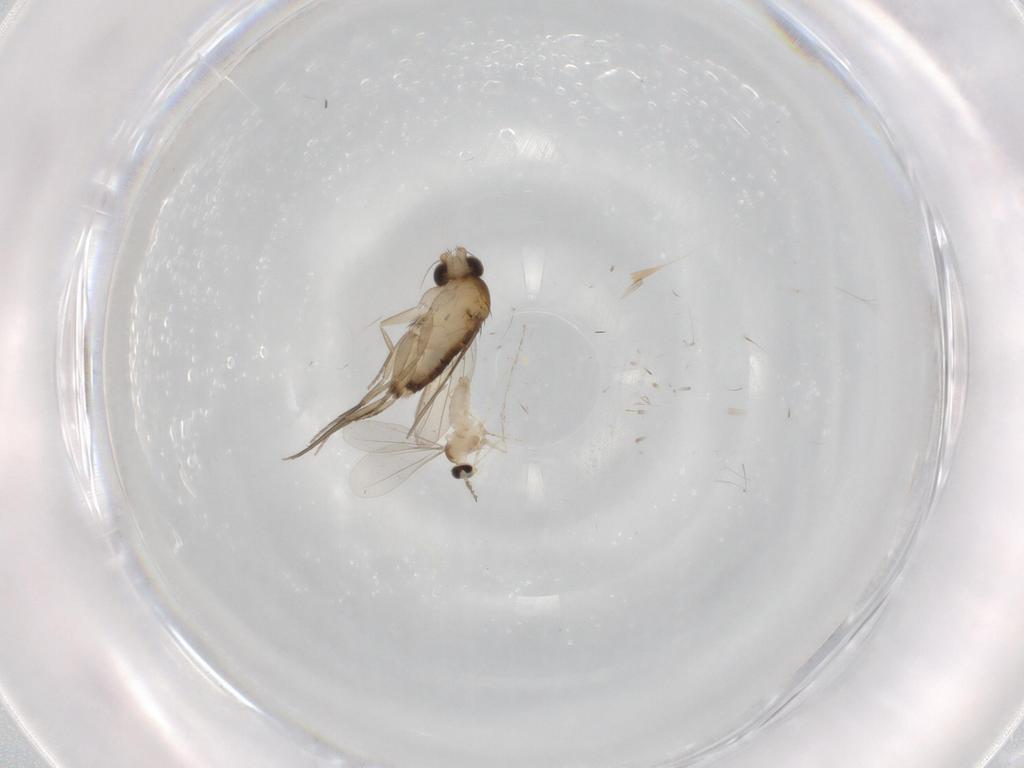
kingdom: Animalia
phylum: Arthropoda
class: Insecta
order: Diptera
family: Cecidomyiidae
